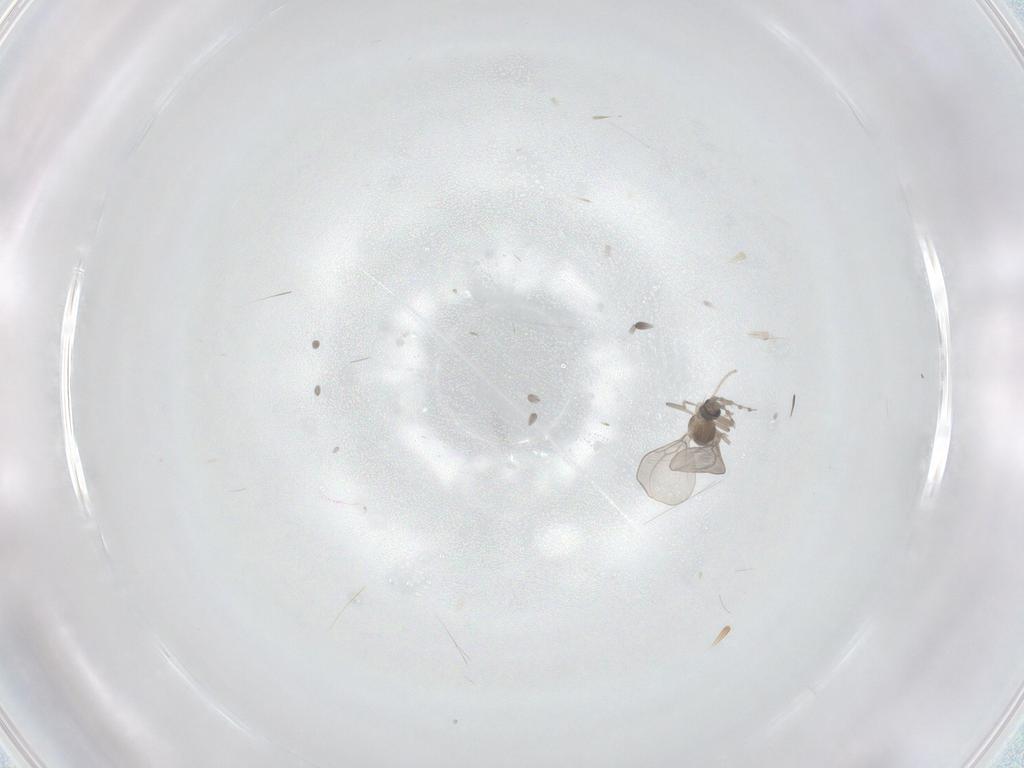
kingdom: Animalia
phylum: Arthropoda
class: Insecta
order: Diptera
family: Cecidomyiidae
